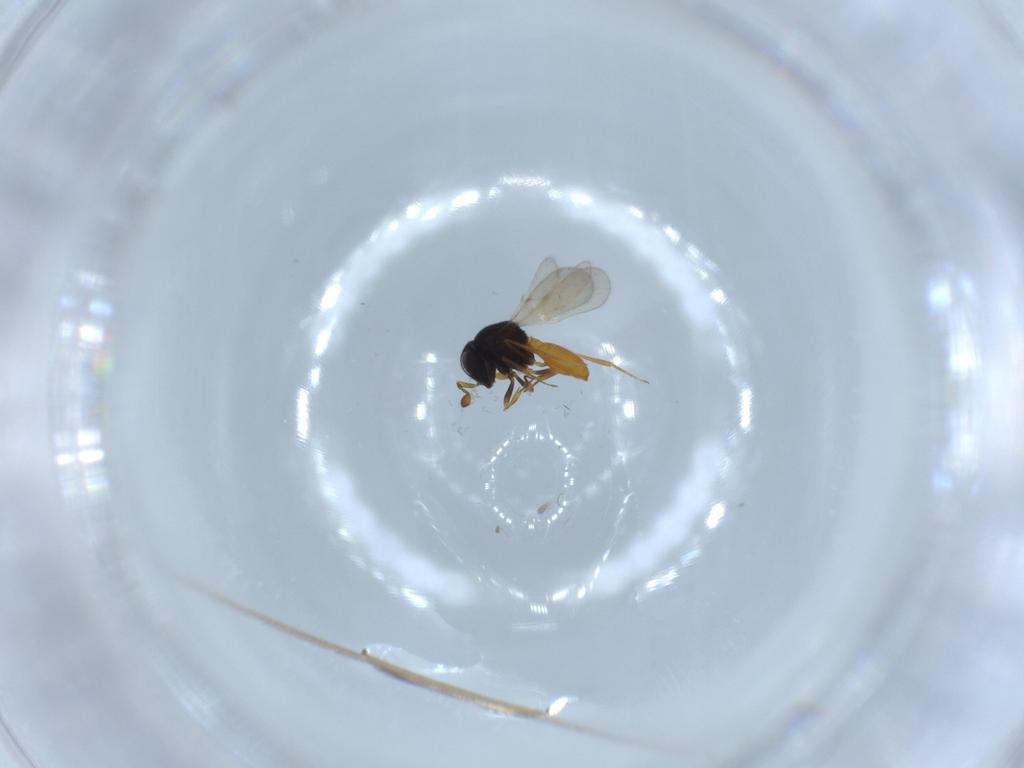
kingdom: Animalia
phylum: Arthropoda
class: Insecta
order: Hymenoptera
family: Scelionidae
